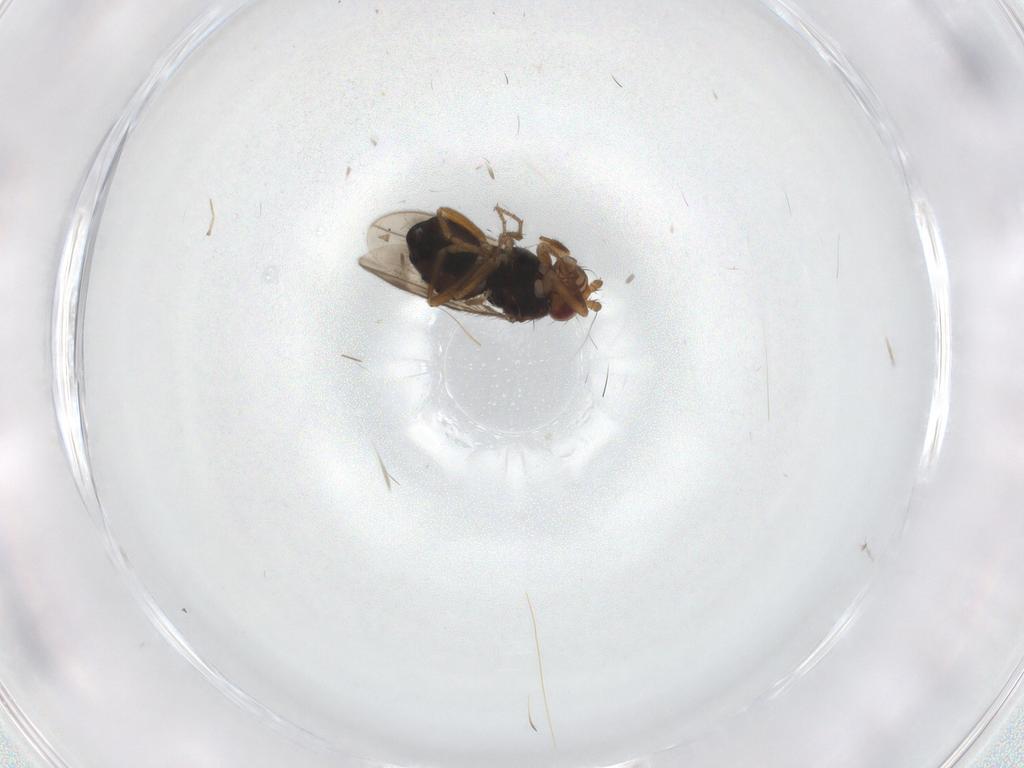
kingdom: Animalia
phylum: Arthropoda
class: Insecta
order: Diptera
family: Sphaeroceridae
